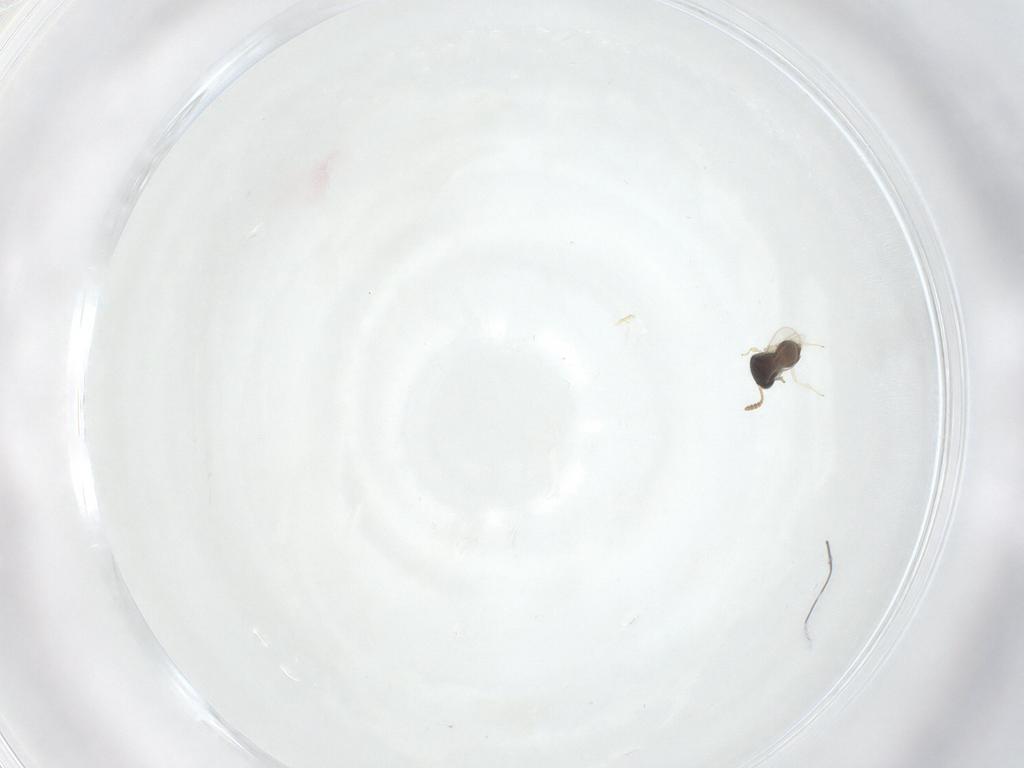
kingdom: Animalia
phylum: Arthropoda
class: Insecta
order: Hymenoptera
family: Scelionidae
